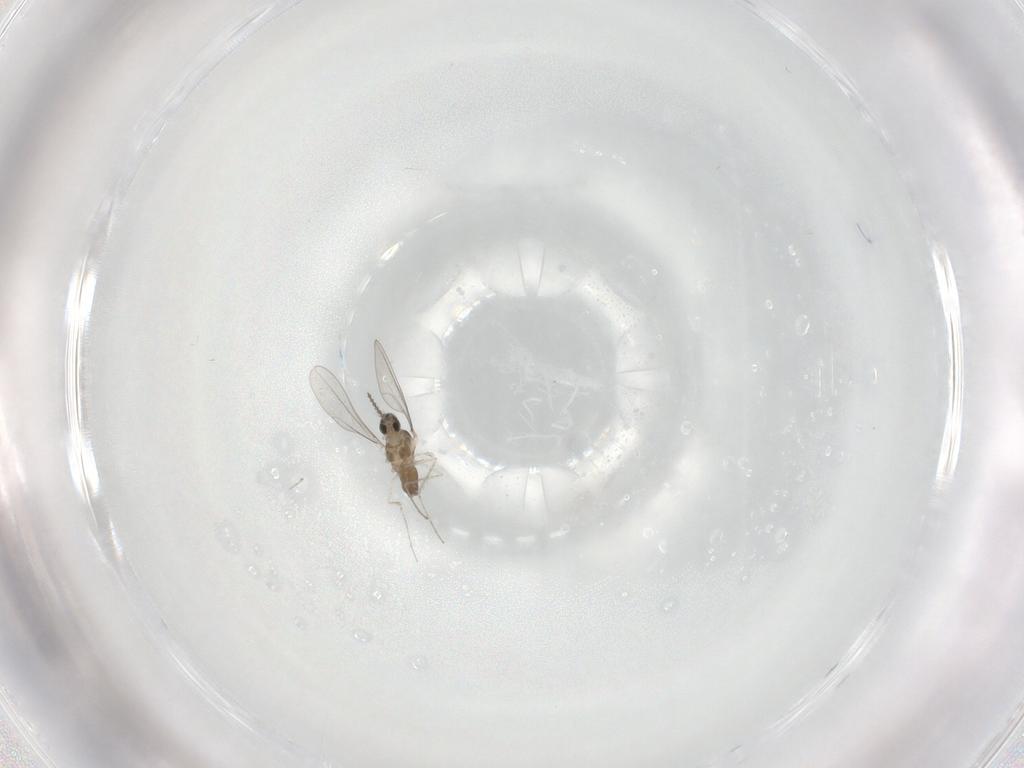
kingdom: Animalia
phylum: Arthropoda
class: Insecta
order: Diptera
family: Cecidomyiidae
